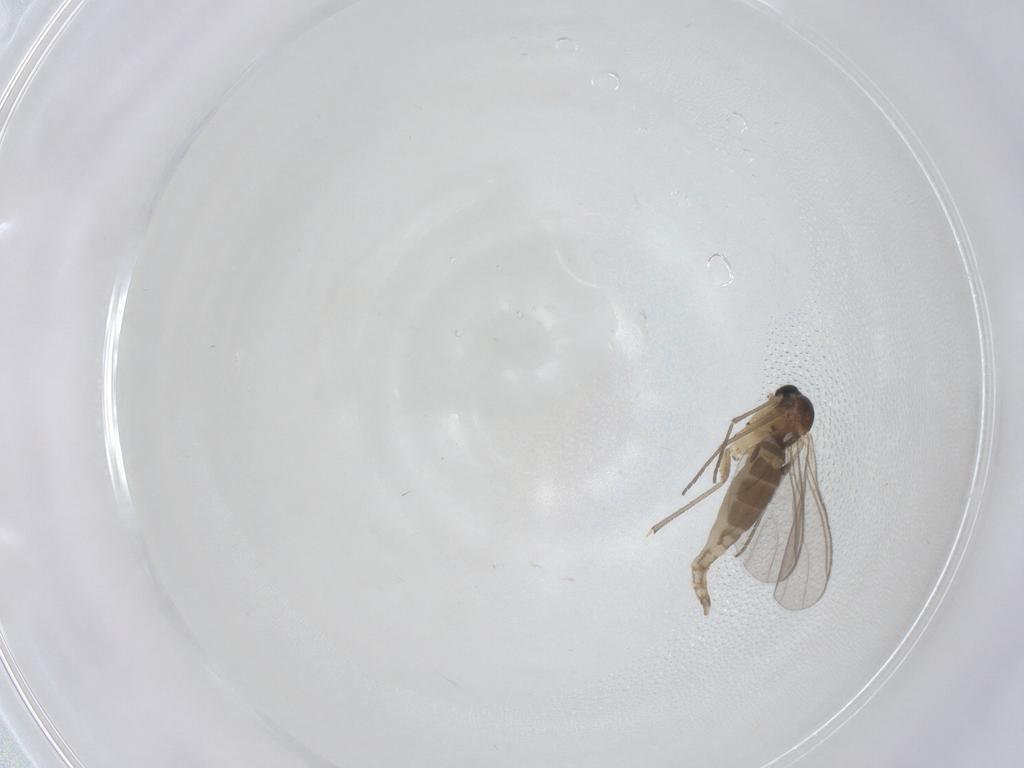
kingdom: Animalia
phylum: Arthropoda
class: Insecta
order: Diptera
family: Sciaridae
